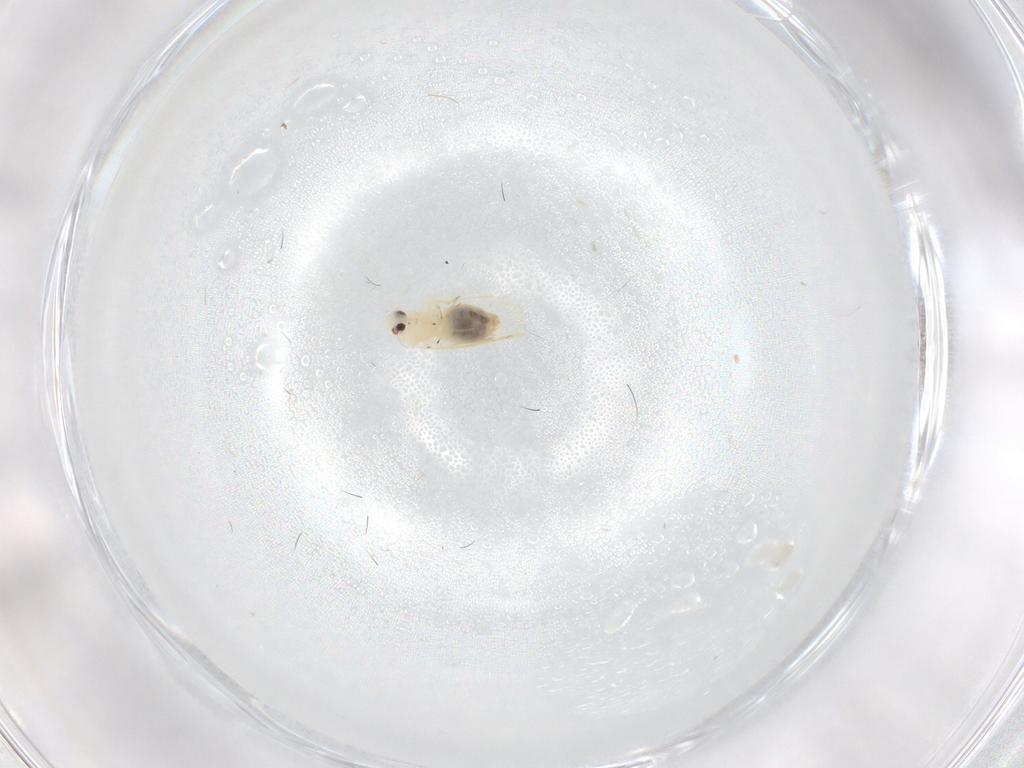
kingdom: Animalia
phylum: Arthropoda
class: Insecta
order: Hemiptera
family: Aleyrodidae
